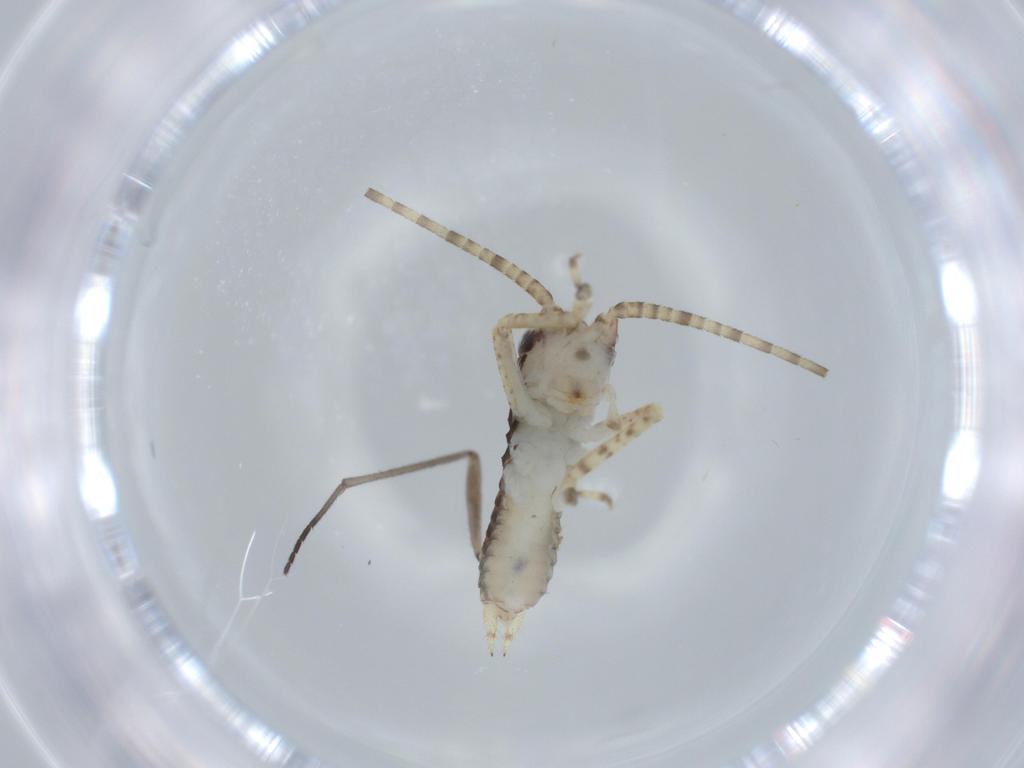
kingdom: Animalia
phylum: Arthropoda
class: Insecta
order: Orthoptera
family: Gryllidae
